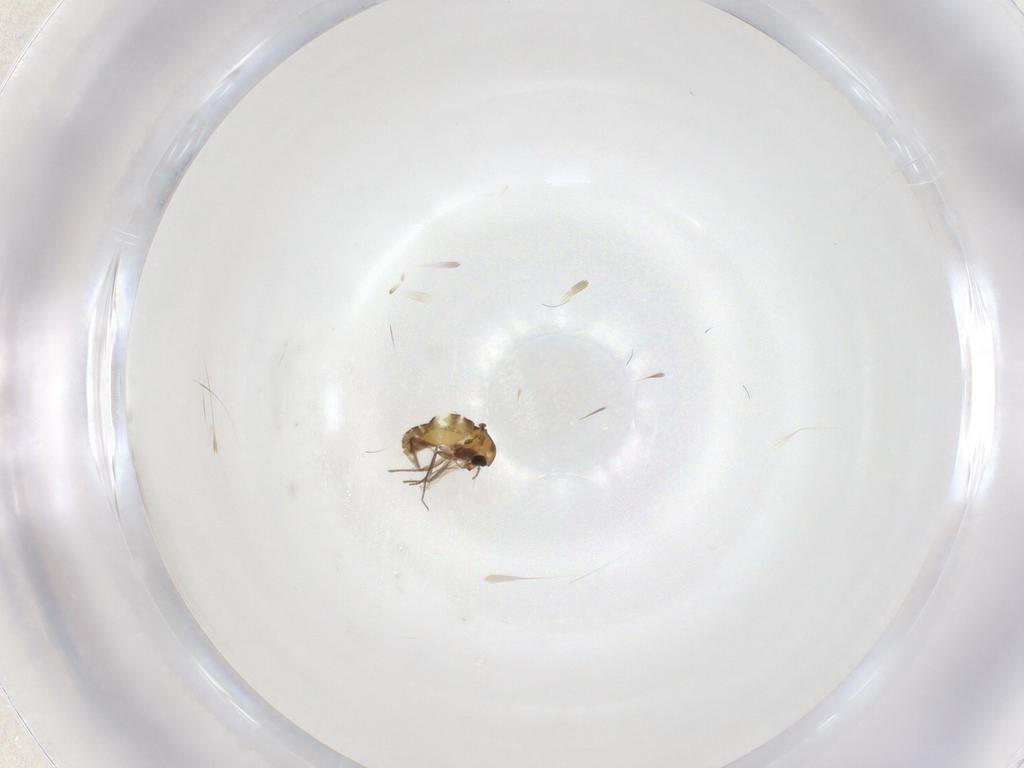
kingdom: Animalia
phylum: Arthropoda
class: Insecta
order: Diptera
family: Chironomidae
